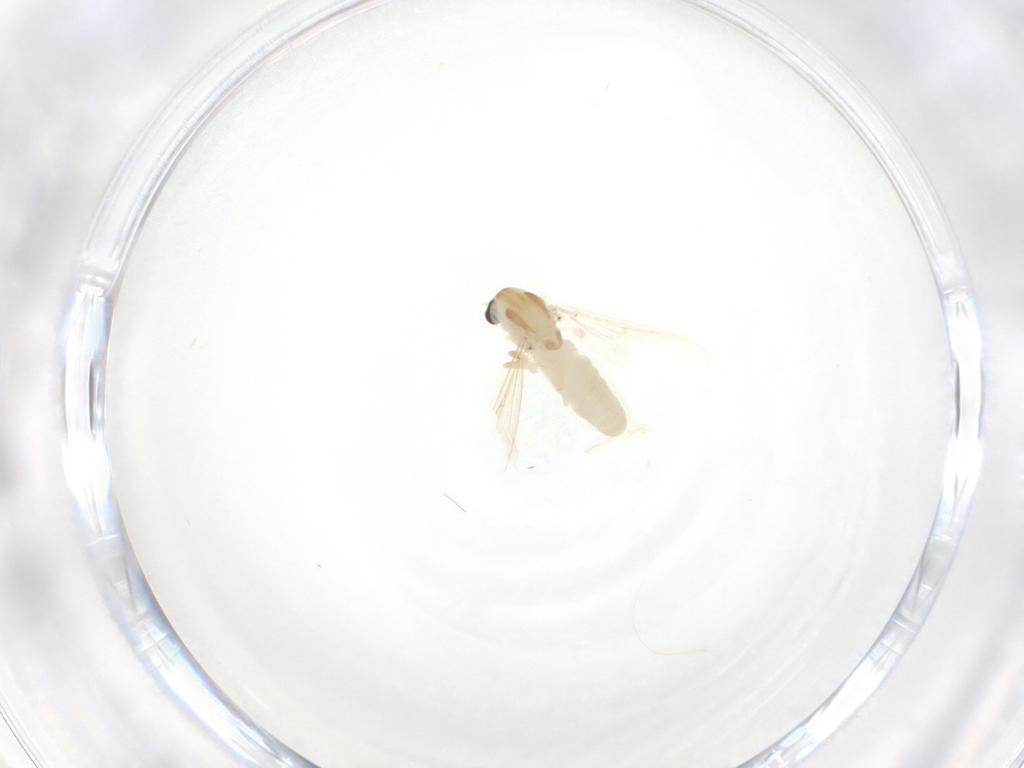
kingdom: Animalia
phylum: Arthropoda
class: Insecta
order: Diptera
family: Chironomidae
